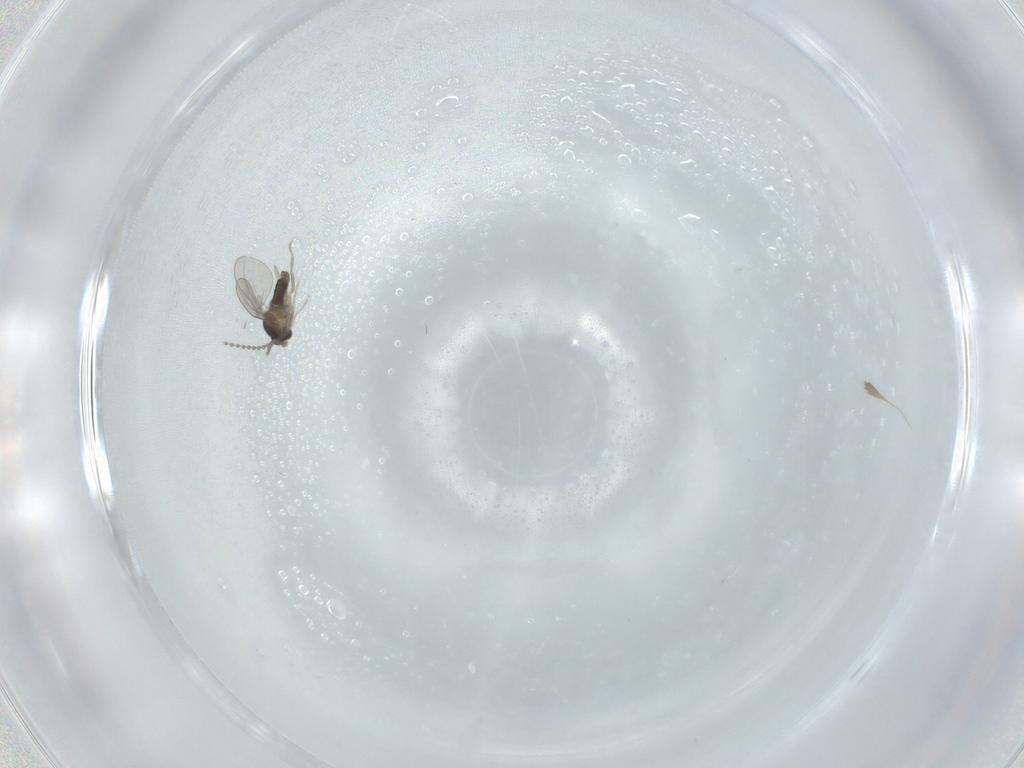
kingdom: Animalia
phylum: Arthropoda
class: Insecta
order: Diptera
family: Cecidomyiidae
